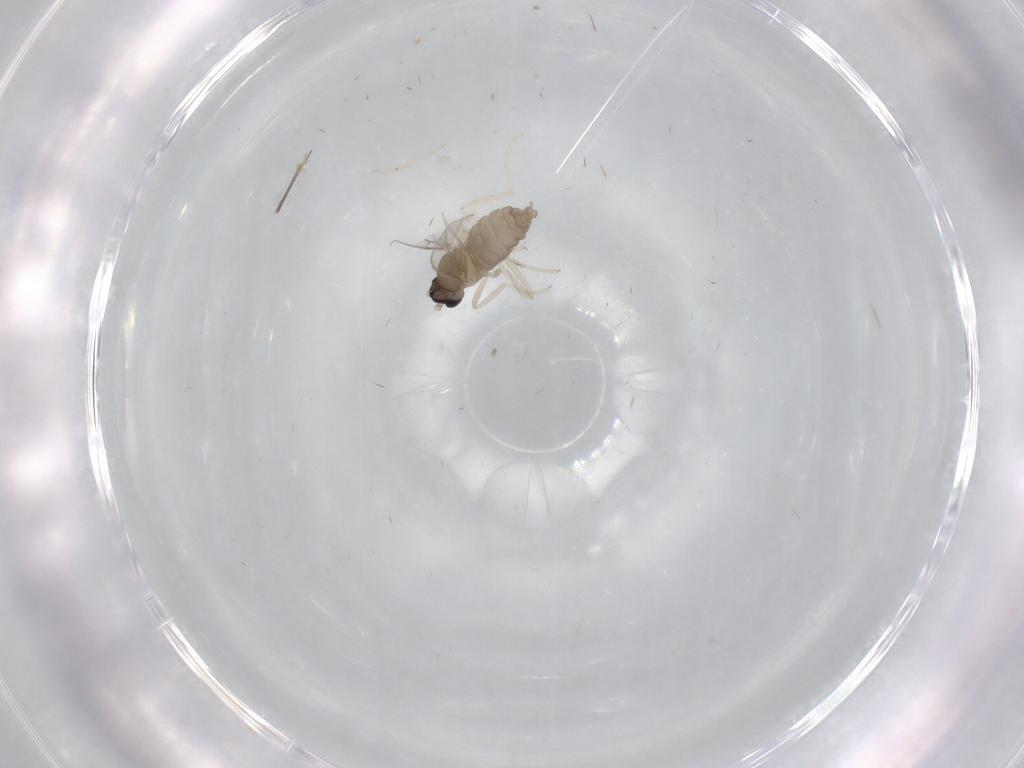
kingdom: Animalia
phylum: Arthropoda
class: Insecta
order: Diptera
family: Cecidomyiidae
